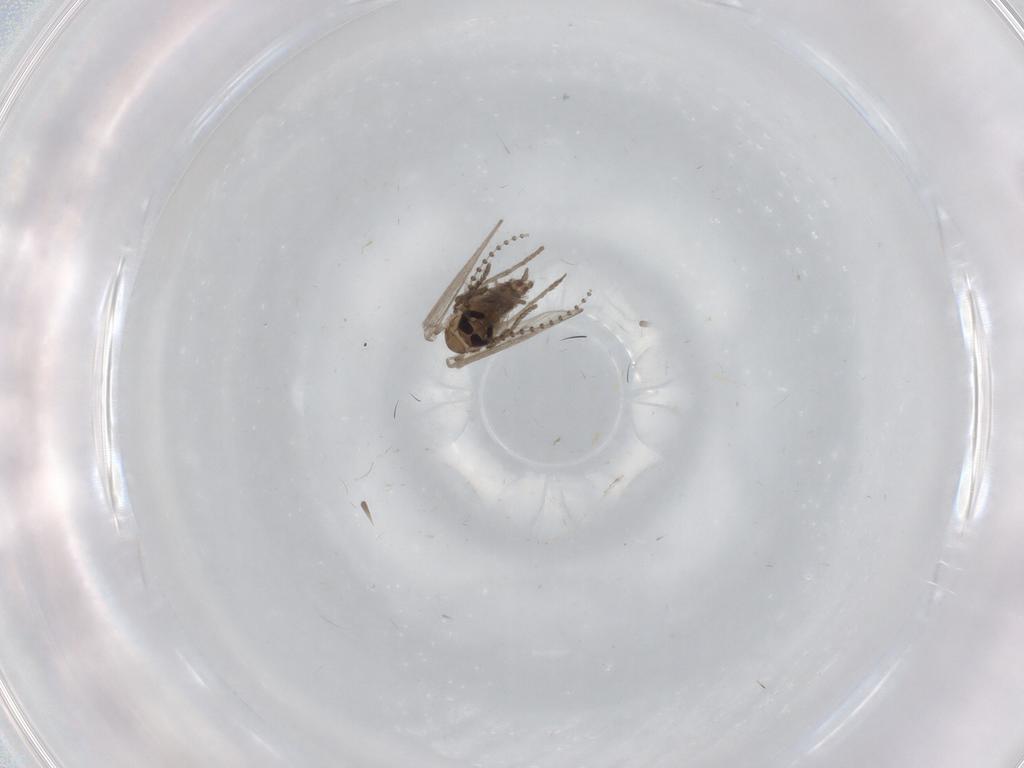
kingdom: Animalia
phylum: Arthropoda
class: Insecta
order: Diptera
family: Psychodidae
